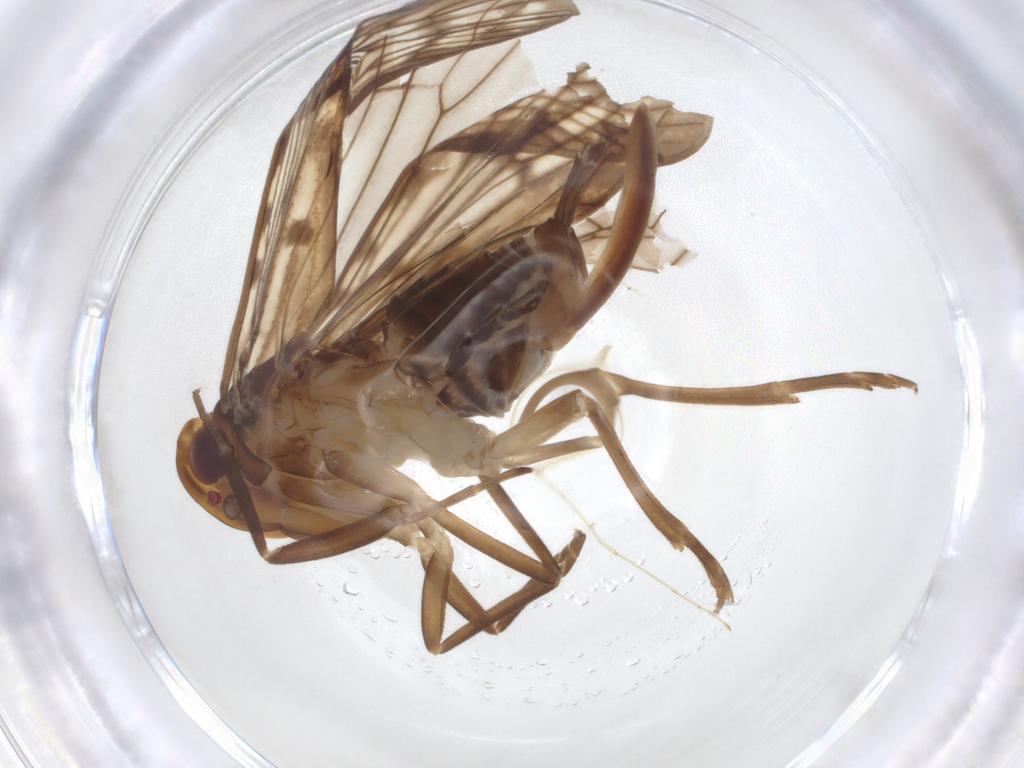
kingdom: Animalia
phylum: Arthropoda
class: Insecta
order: Hemiptera
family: Cixiidae
